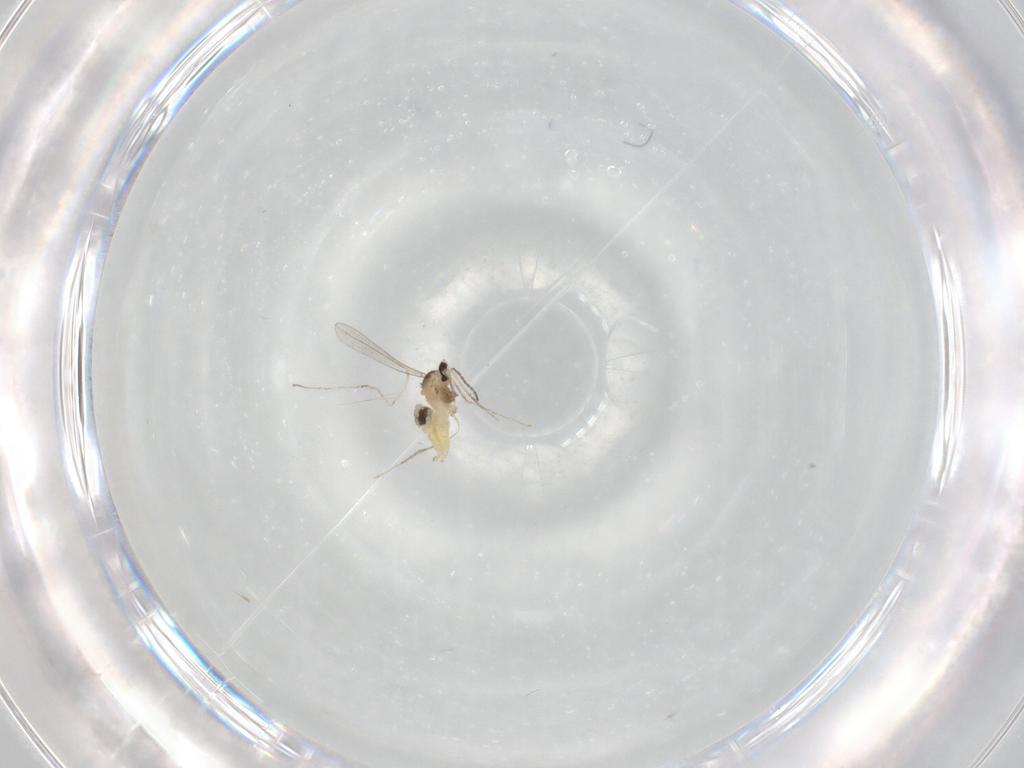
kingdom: Animalia
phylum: Arthropoda
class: Insecta
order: Diptera
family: Cecidomyiidae
